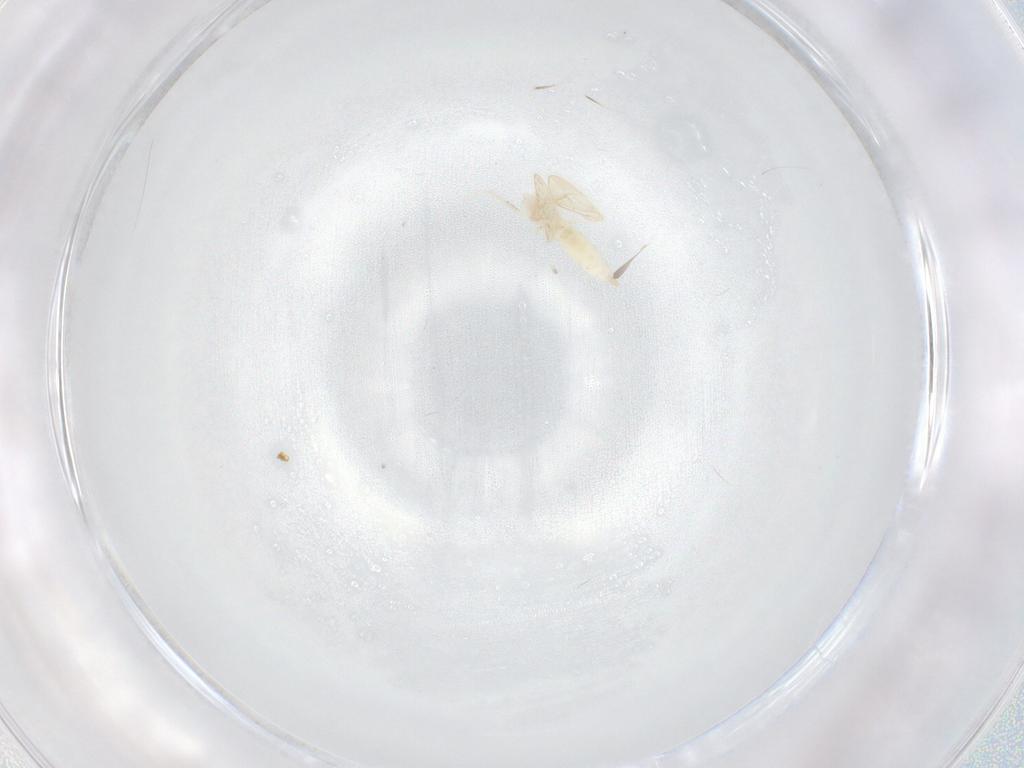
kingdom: Animalia
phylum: Arthropoda
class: Insecta
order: Diptera
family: Cecidomyiidae
